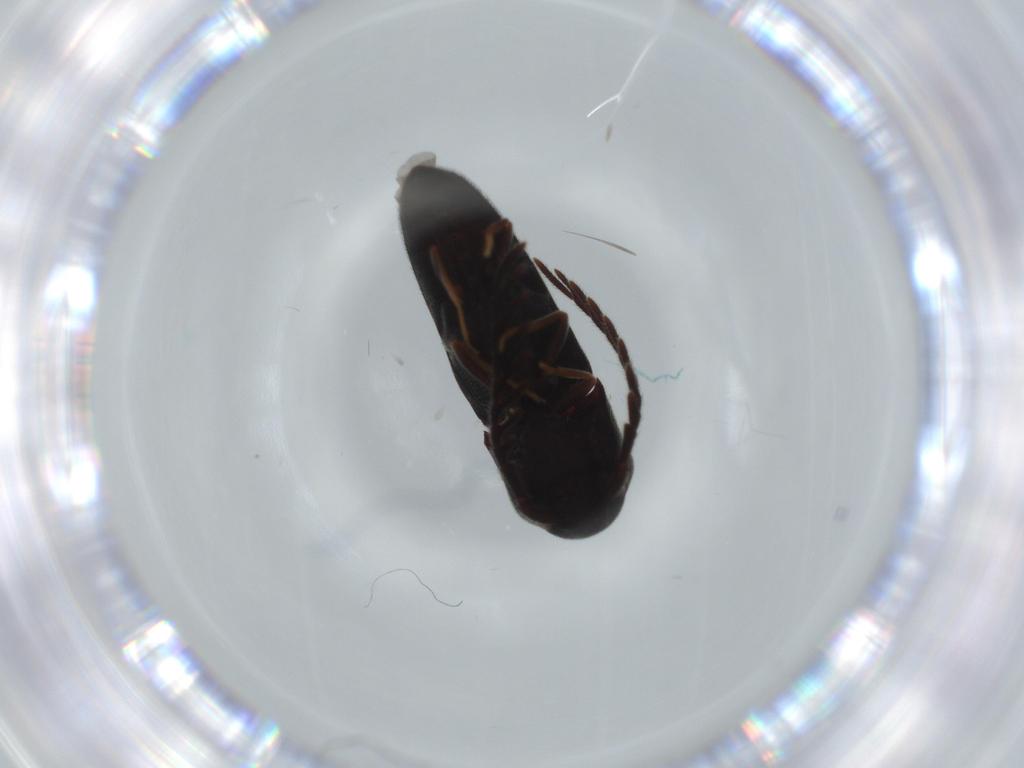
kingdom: Animalia
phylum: Arthropoda
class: Insecta
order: Coleoptera
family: Eucnemidae
